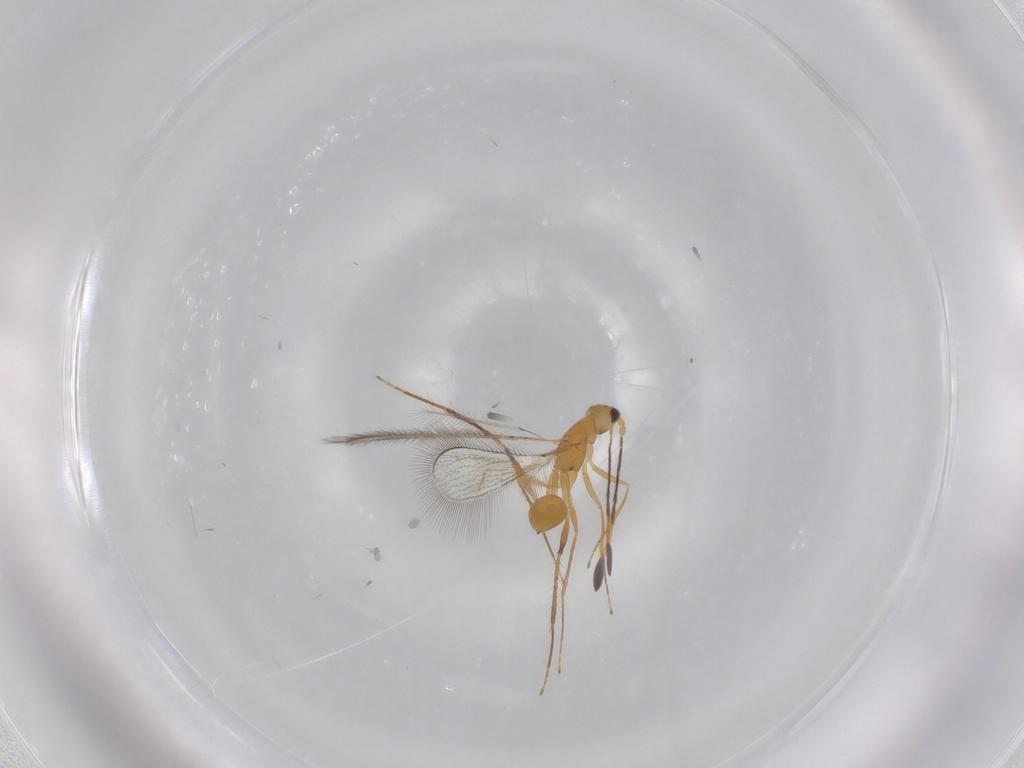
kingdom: Animalia
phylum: Arthropoda
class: Insecta
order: Hymenoptera
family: Mymaridae
